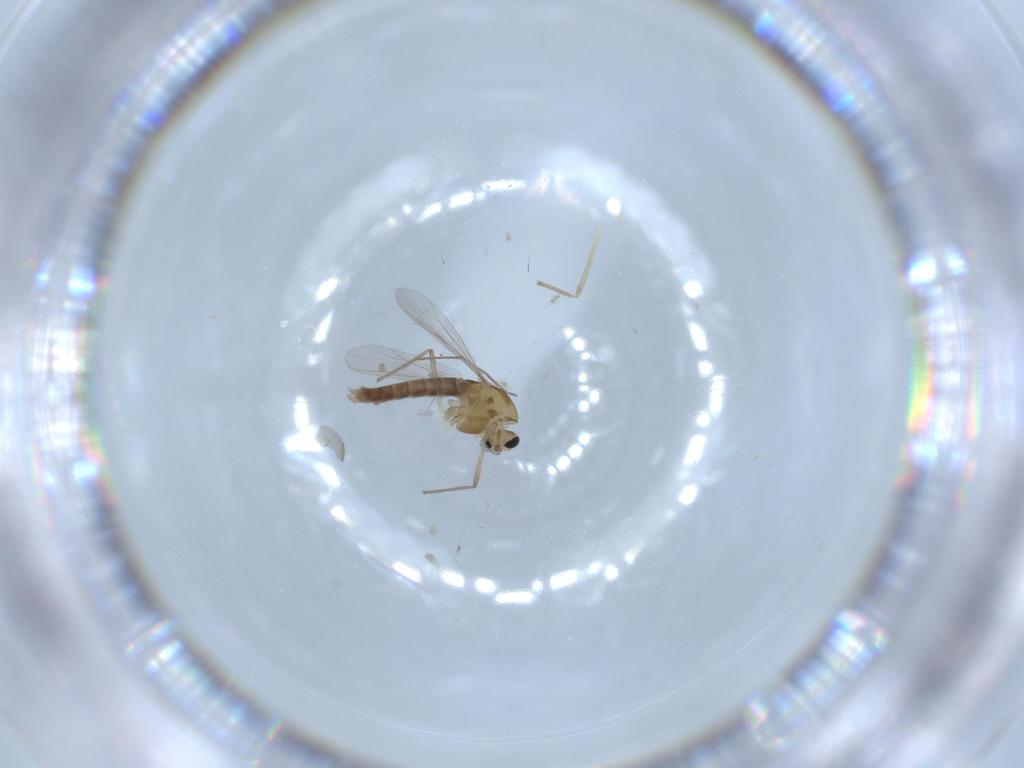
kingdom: Animalia
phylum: Arthropoda
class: Insecta
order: Diptera
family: Chironomidae
